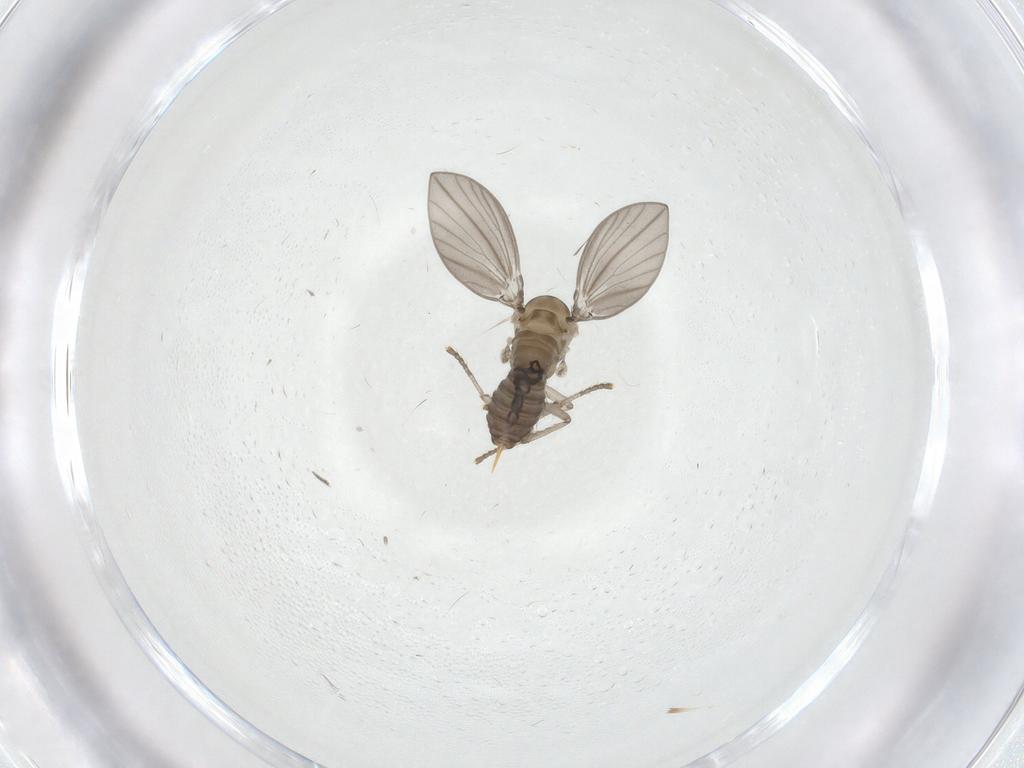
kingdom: Animalia
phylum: Arthropoda
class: Insecta
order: Diptera
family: Psychodidae
